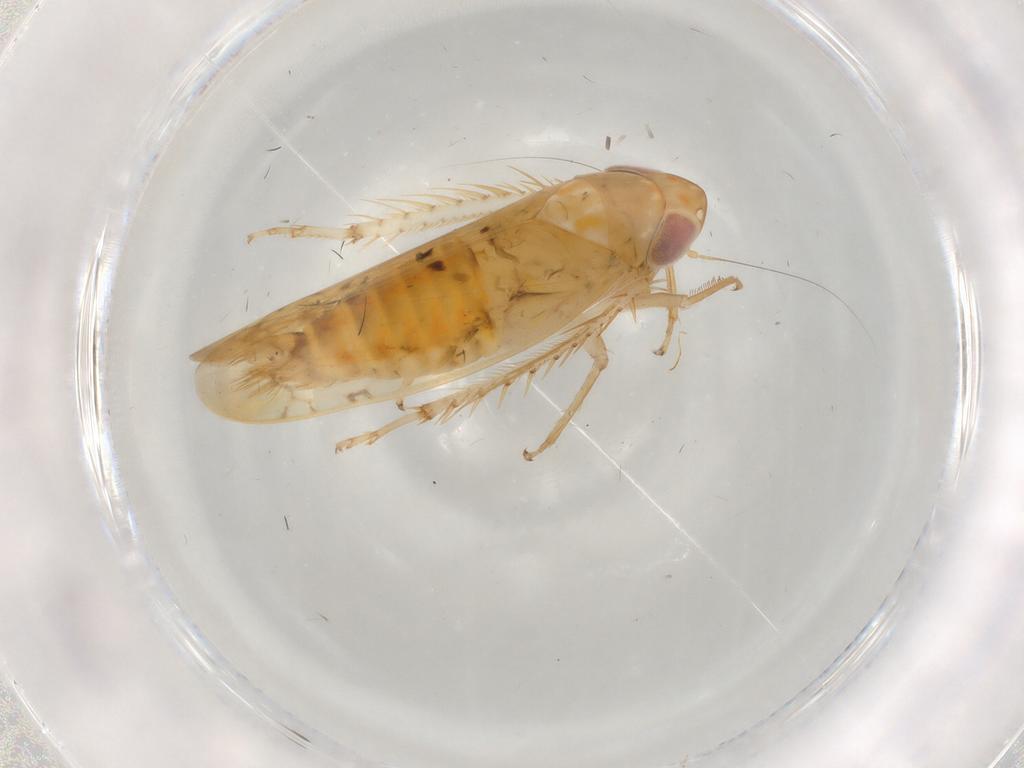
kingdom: Animalia
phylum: Arthropoda
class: Insecta
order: Hemiptera
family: Cicadellidae
